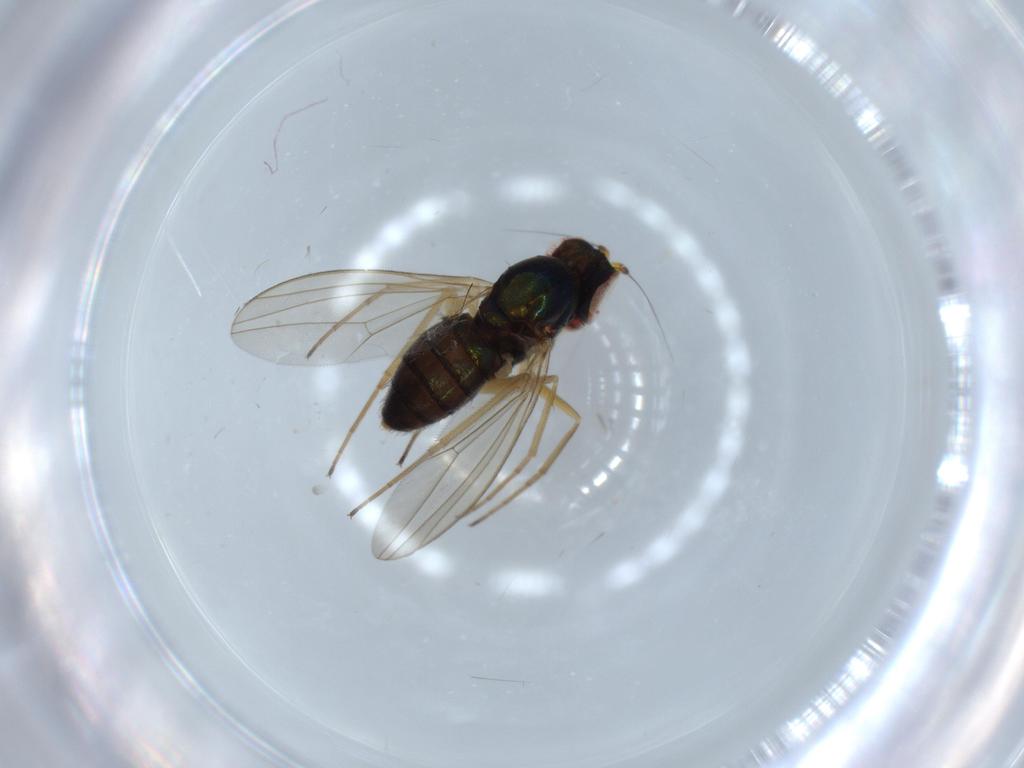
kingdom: Animalia
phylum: Arthropoda
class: Insecta
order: Diptera
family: Dolichopodidae
